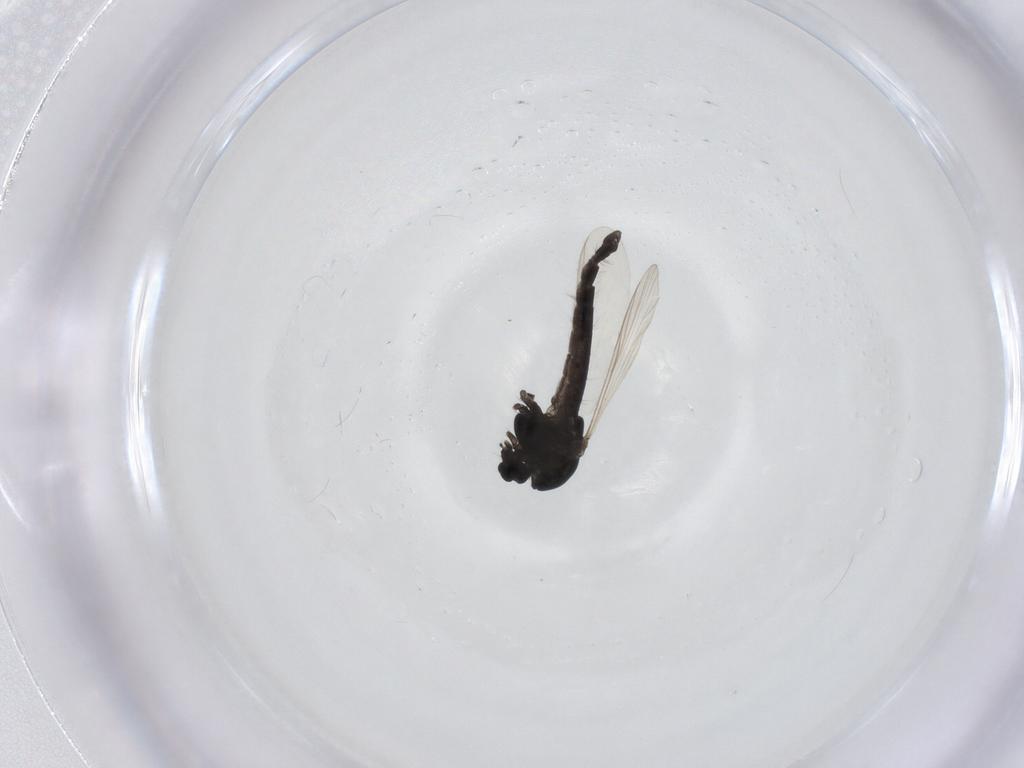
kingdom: Animalia
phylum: Arthropoda
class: Insecta
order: Diptera
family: Chironomidae
